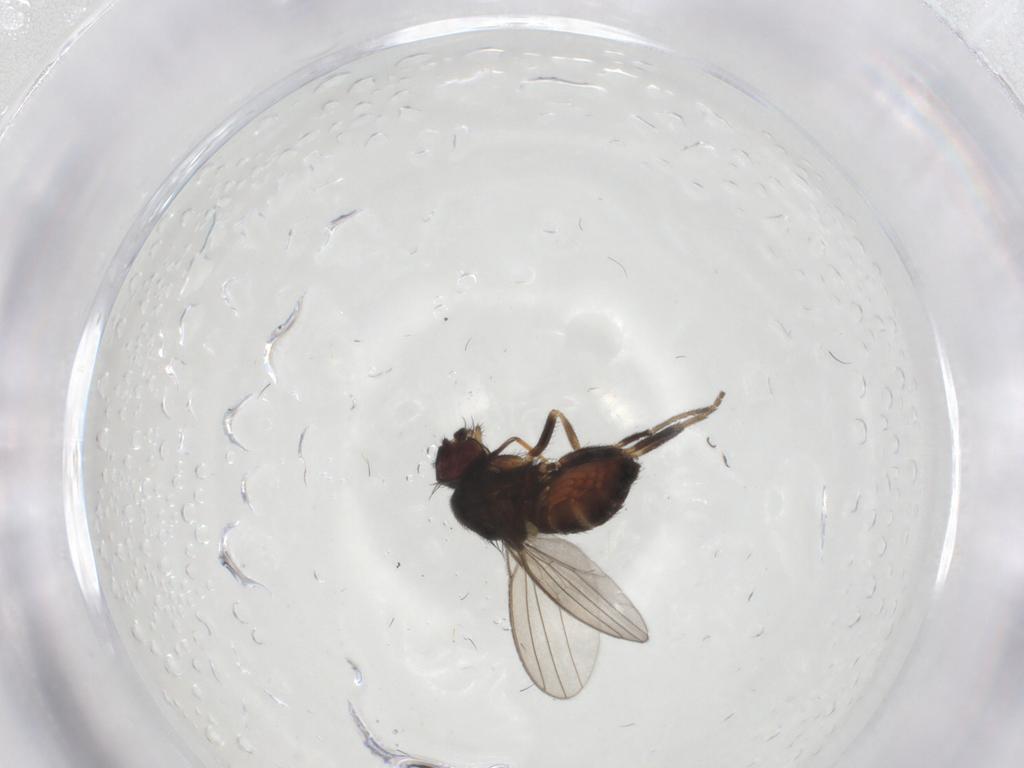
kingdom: Animalia
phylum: Arthropoda
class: Insecta
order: Diptera
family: Milichiidae
